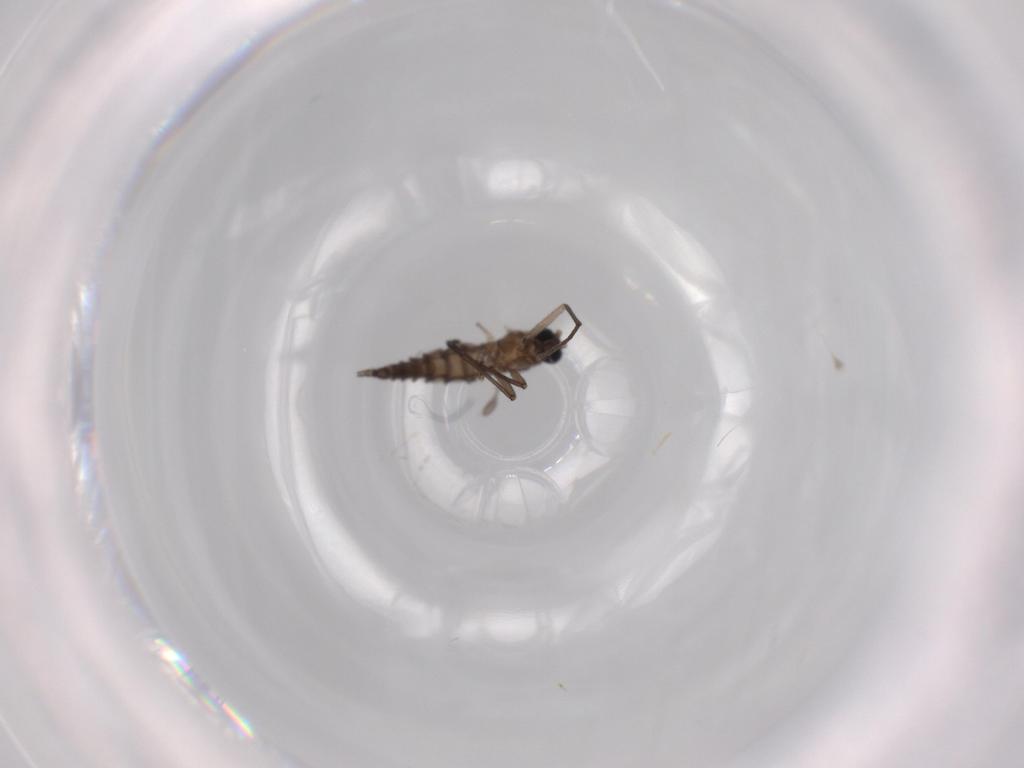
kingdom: Animalia
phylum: Arthropoda
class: Insecta
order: Diptera
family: Sciaridae
